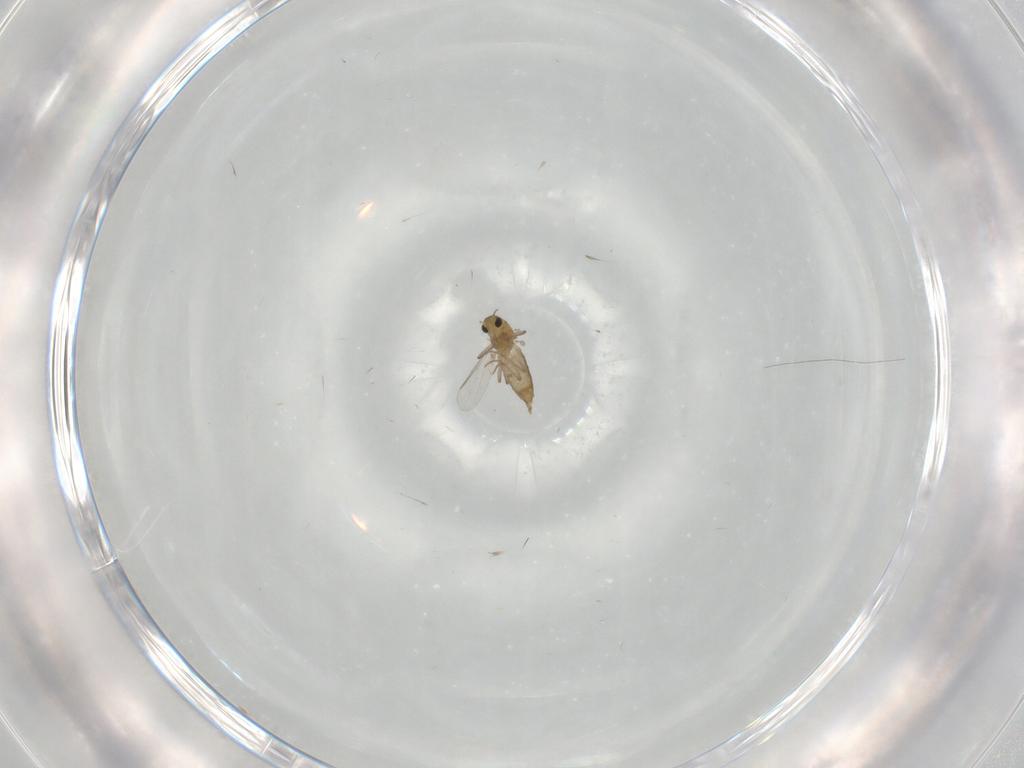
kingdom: Animalia
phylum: Arthropoda
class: Insecta
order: Diptera
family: Chironomidae
